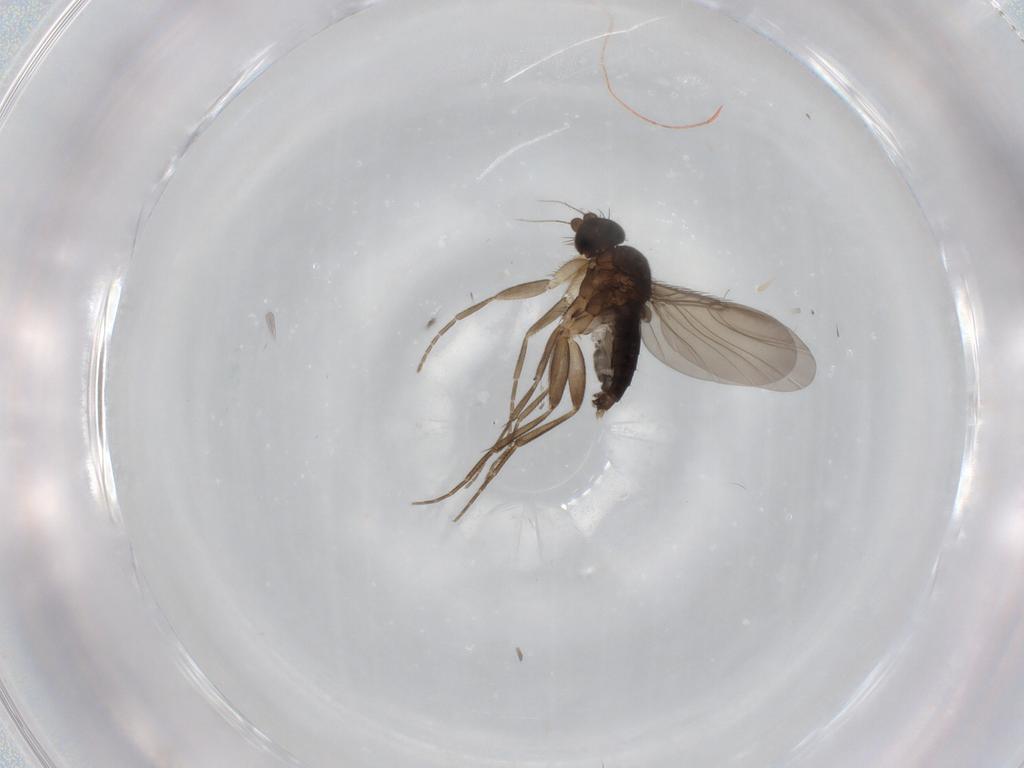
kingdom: Animalia
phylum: Arthropoda
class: Insecta
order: Diptera
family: Phoridae
